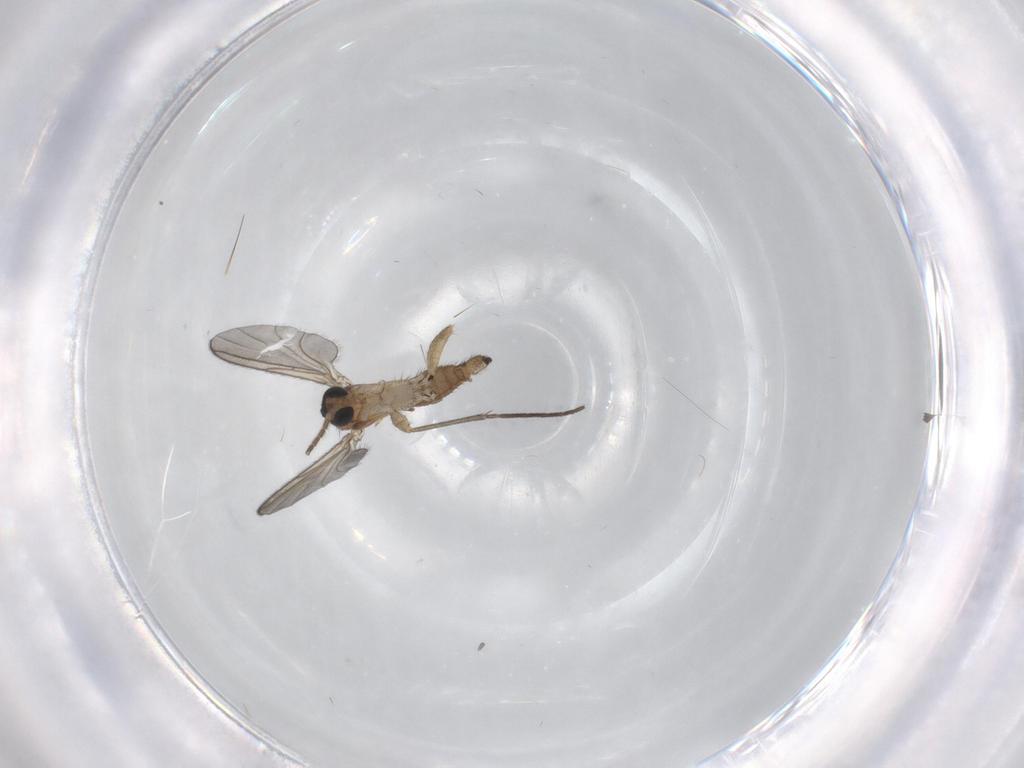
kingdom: Animalia
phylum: Arthropoda
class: Insecta
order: Diptera
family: Sciaridae
